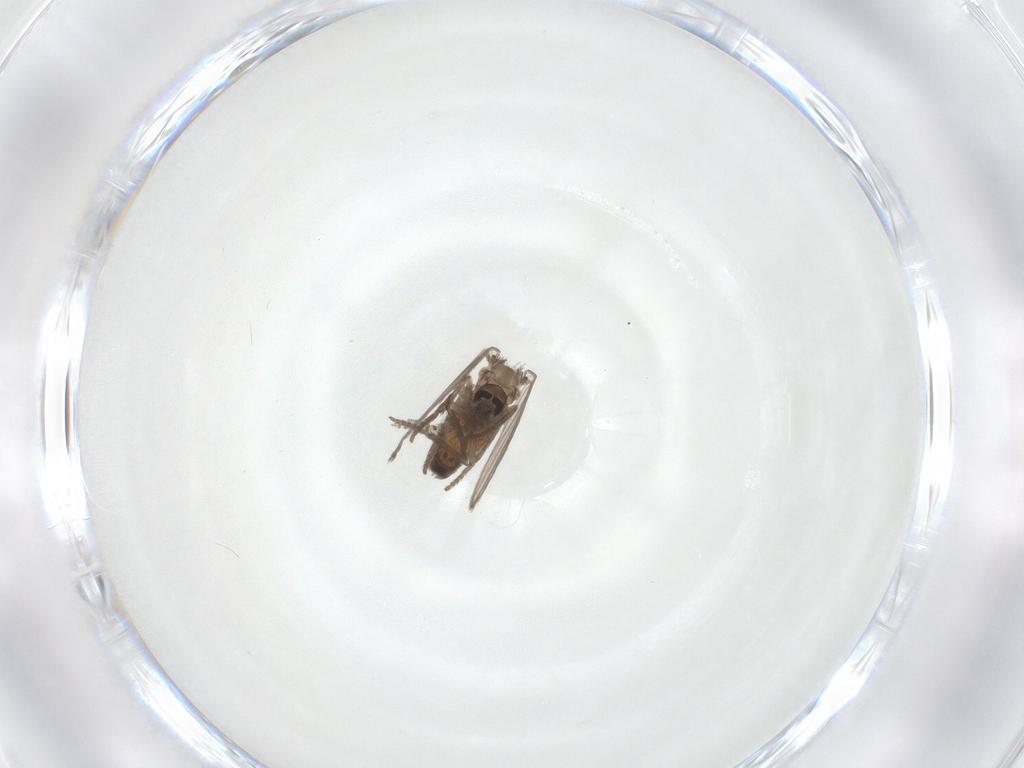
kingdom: Animalia
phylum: Arthropoda
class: Insecta
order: Diptera
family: Psychodidae
